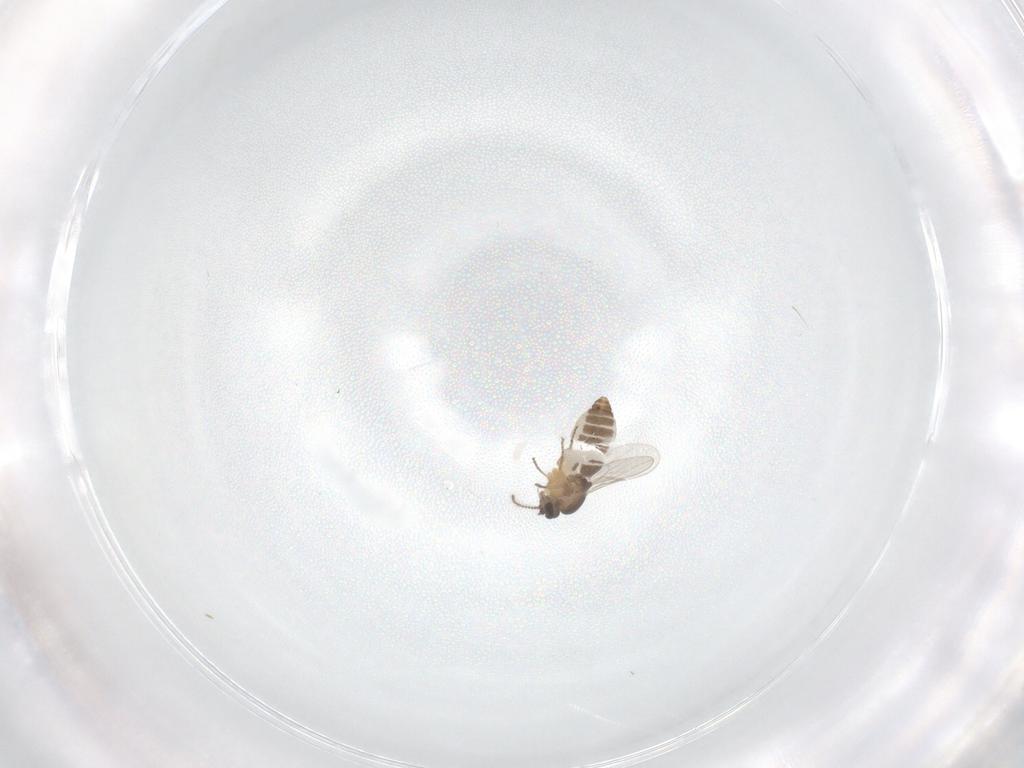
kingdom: Animalia
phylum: Arthropoda
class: Insecta
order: Diptera
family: Ceratopogonidae
